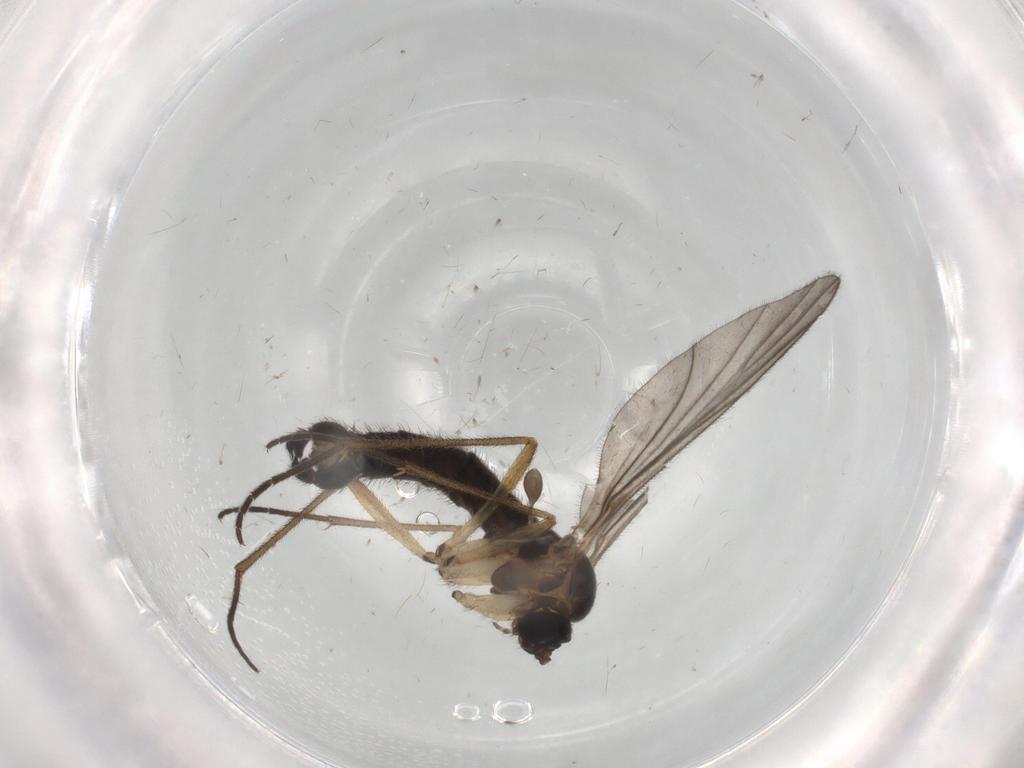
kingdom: Animalia
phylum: Arthropoda
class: Insecta
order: Diptera
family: Sciaridae
